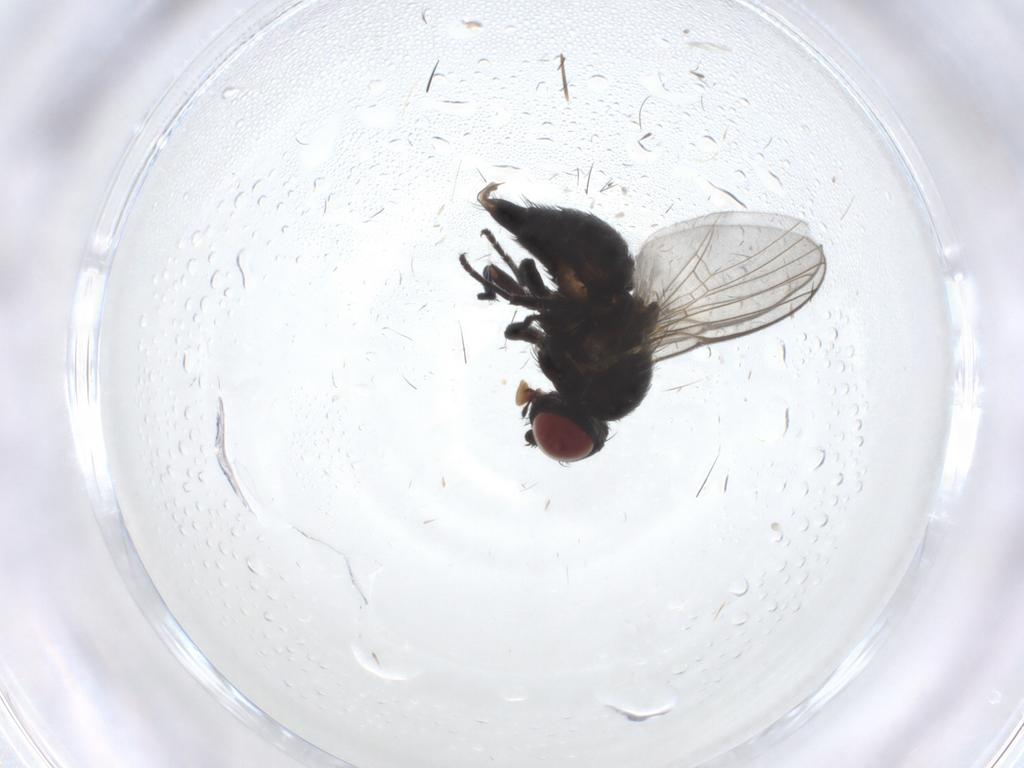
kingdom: Animalia
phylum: Arthropoda
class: Insecta
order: Diptera
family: Muscidae
